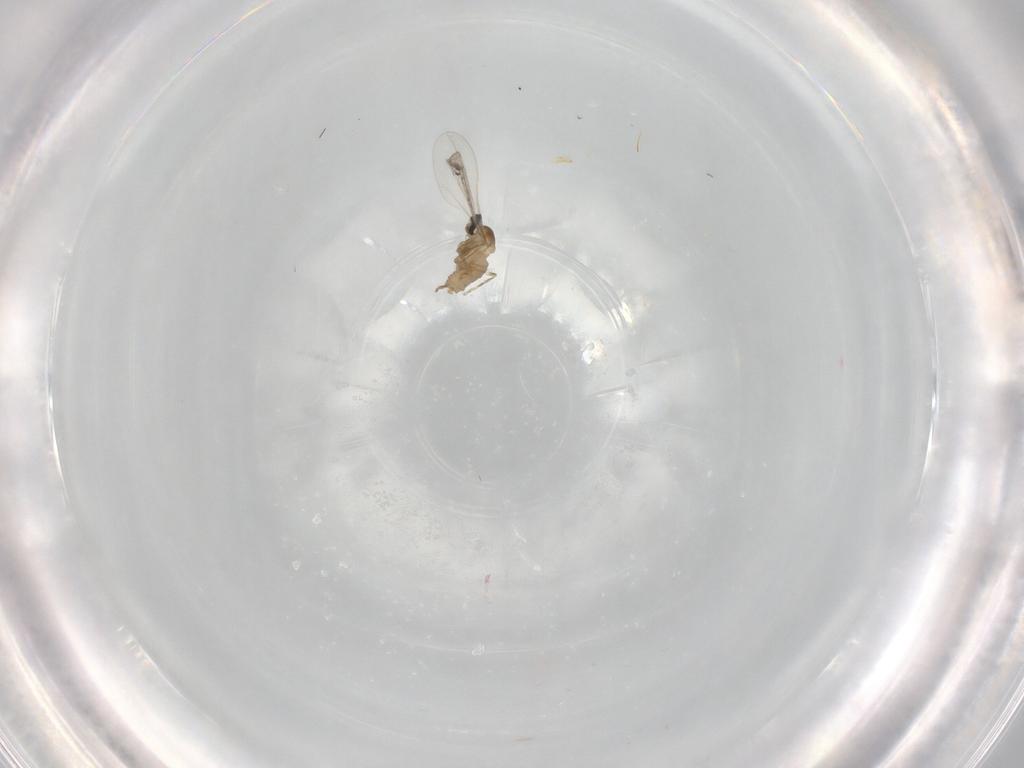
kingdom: Animalia
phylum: Arthropoda
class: Insecta
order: Diptera
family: Cecidomyiidae
